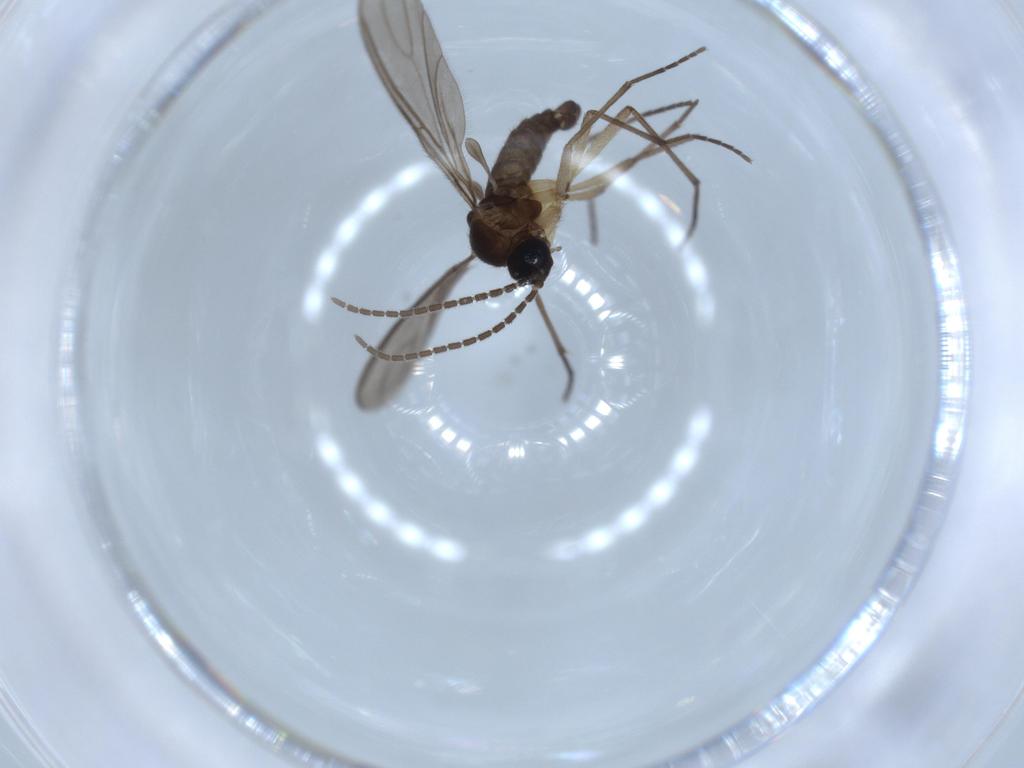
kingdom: Animalia
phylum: Arthropoda
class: Insecta
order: Diptera
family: Sciaridae
